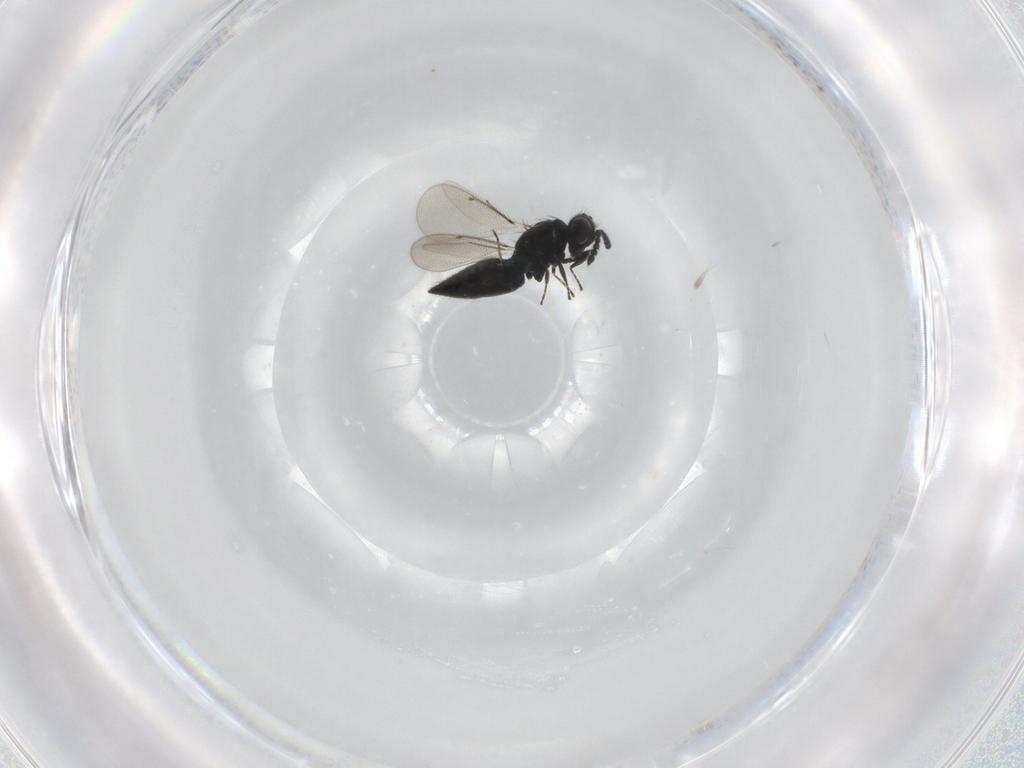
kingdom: Animalia
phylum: Arthropoda
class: Insecta
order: Hymenoptera
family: Eulophidae
